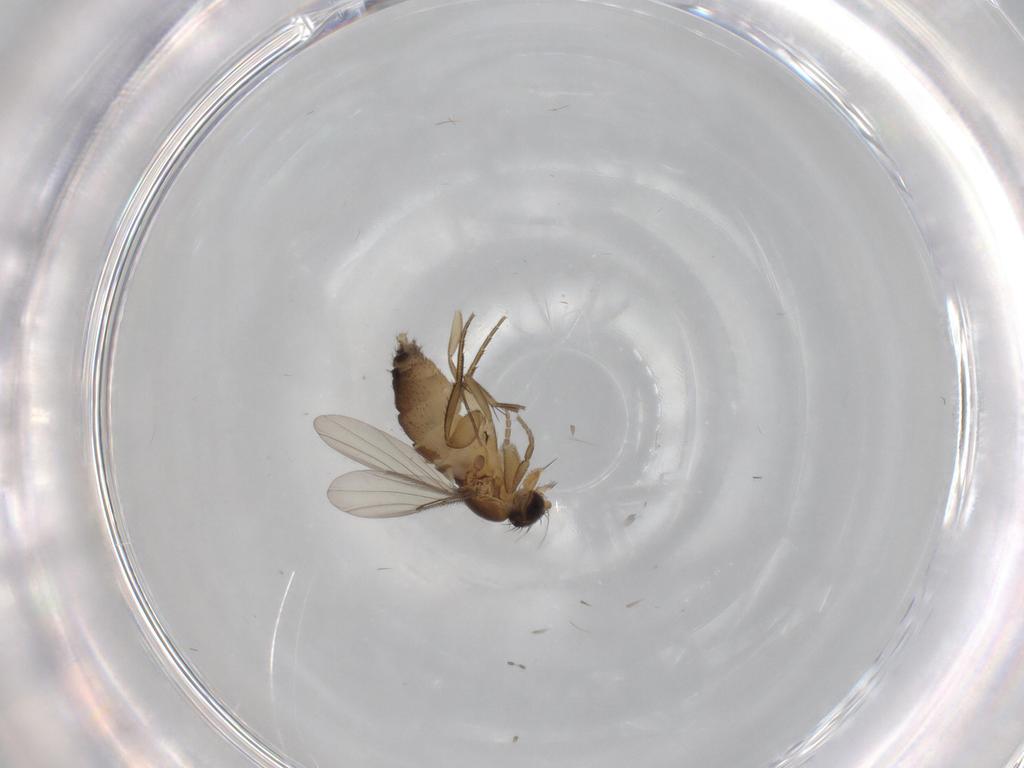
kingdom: Animalia
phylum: Arthropoda
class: Insecta
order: Diptera
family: Phoridae
